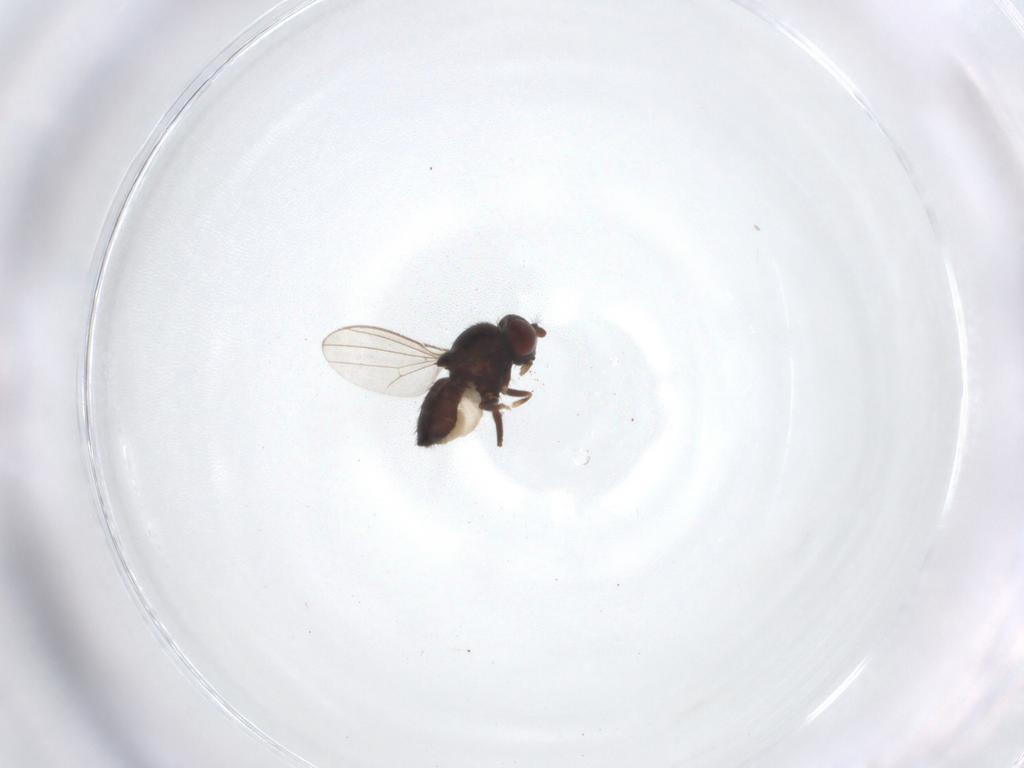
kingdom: Animalia
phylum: Arthropoda
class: Insecta
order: Diptera
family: Ephydridae
